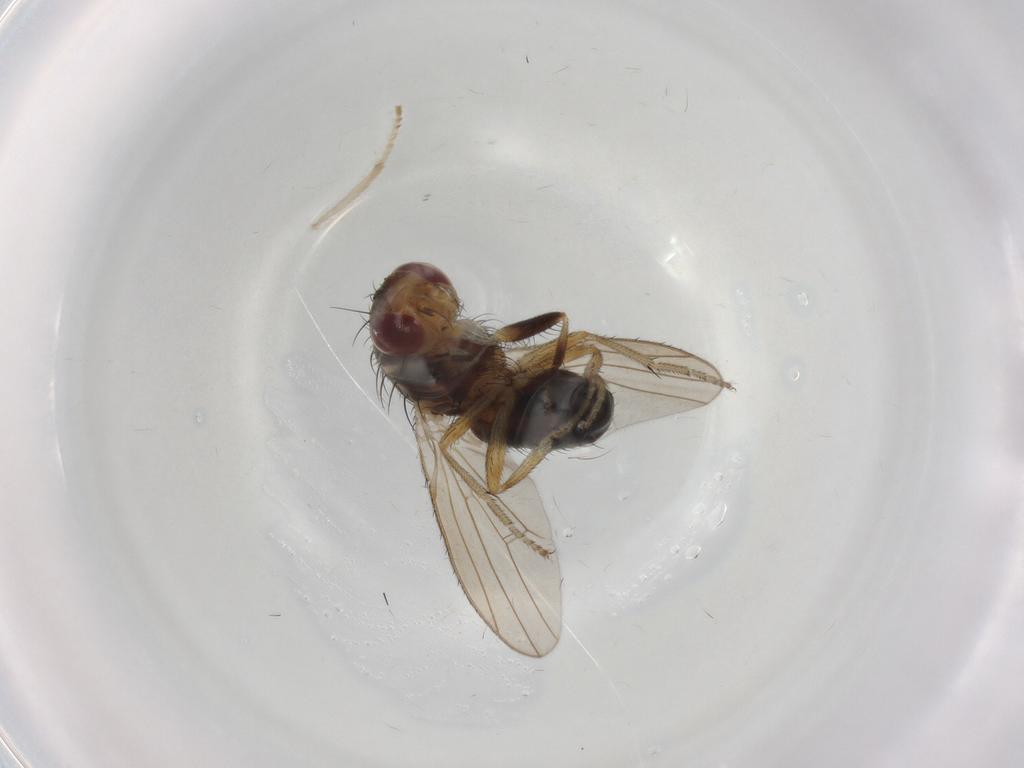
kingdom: Animalia
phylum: Arthropoda
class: Insecta
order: Diptera
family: Heleomyzidae
